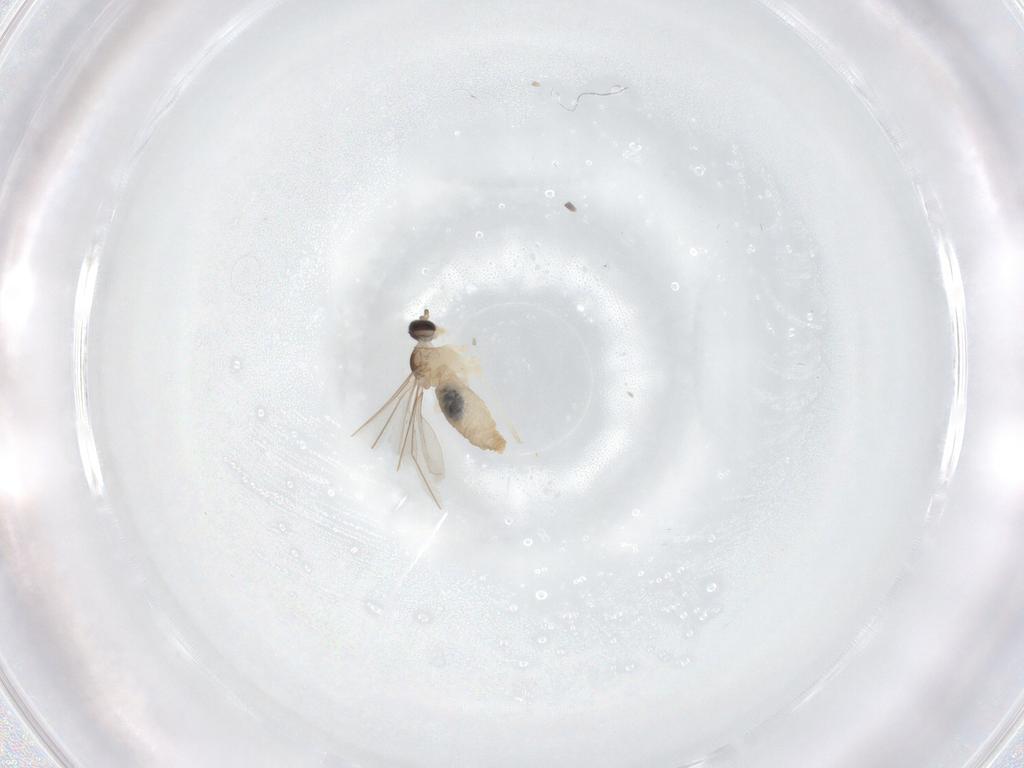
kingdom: Animalia
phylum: Arthropoda
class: Insecta
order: Diptera
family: Cecidomyiidae
